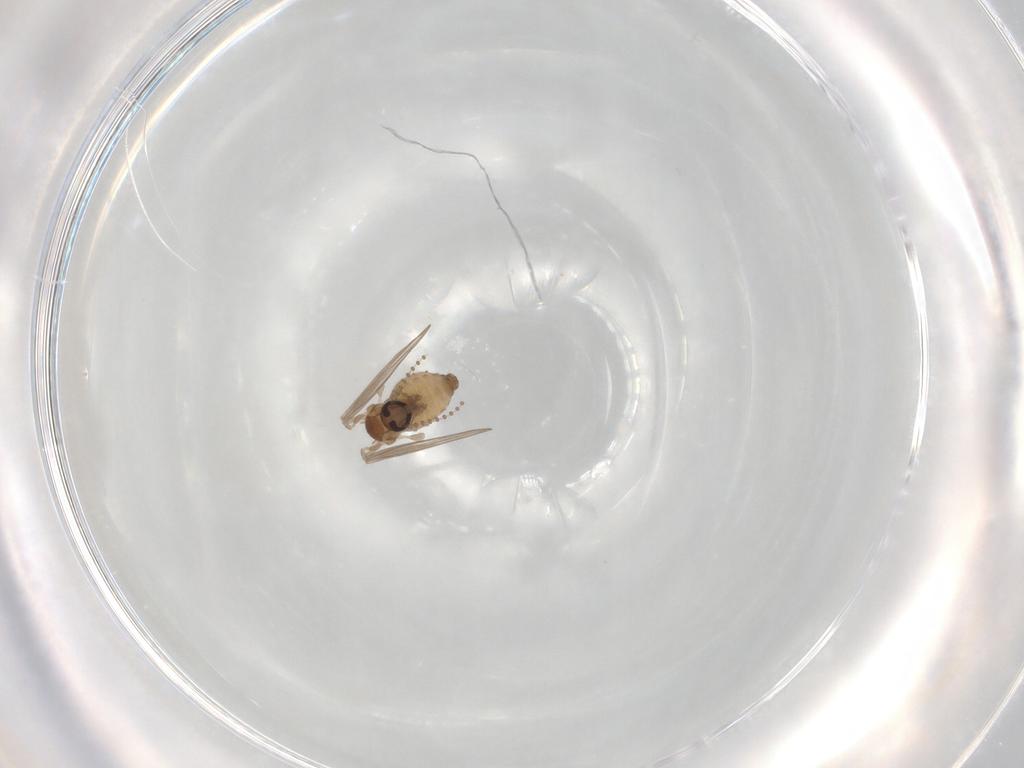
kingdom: Animalia
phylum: Arthropoda
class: Insecta
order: Diptera
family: Psychodidae
